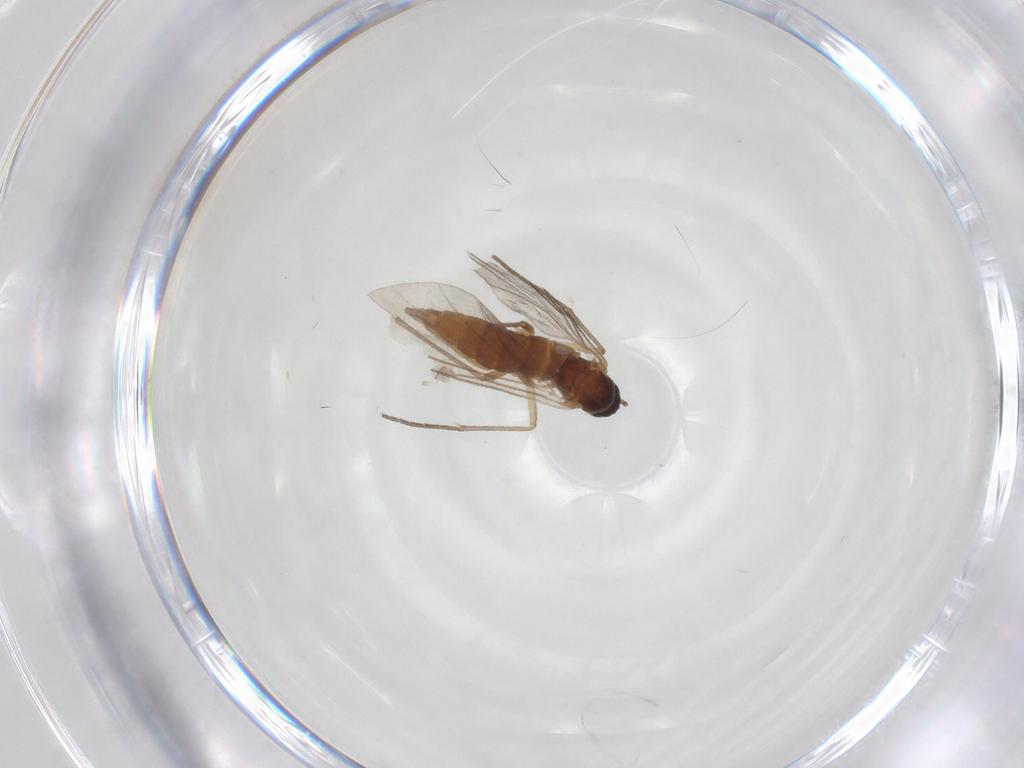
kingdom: Animalia
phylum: Arthropoda
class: Insecta
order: Diptera
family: Sciaridae
